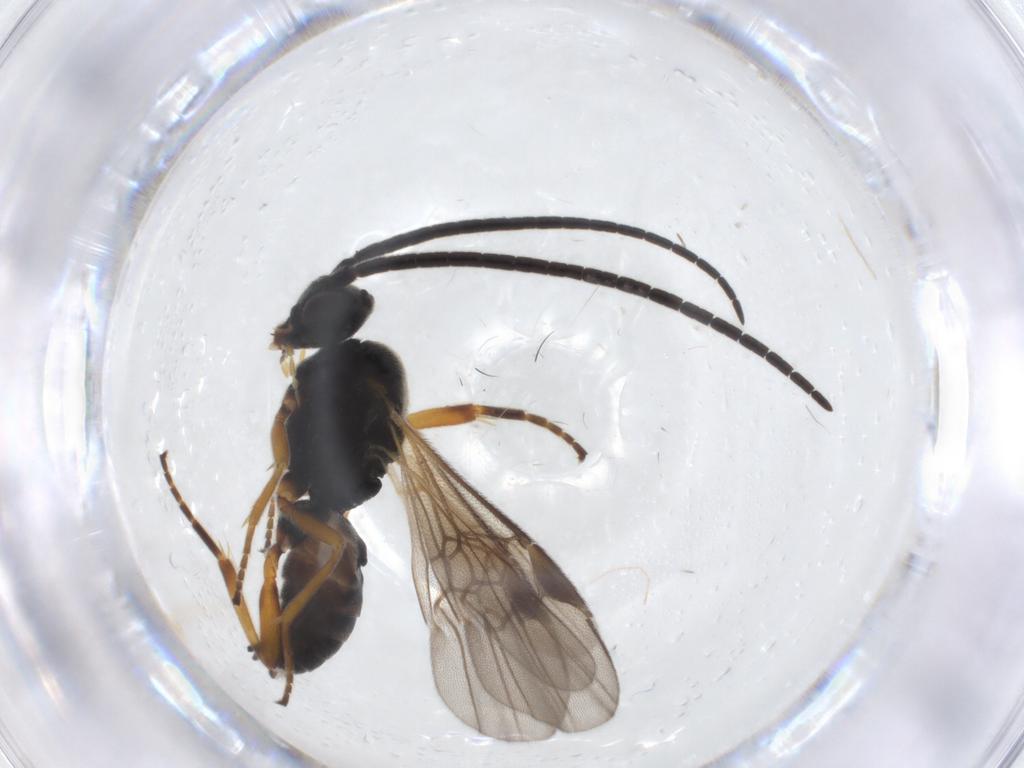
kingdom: Animalia
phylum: Arthropoda
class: Insecta
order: Hymenoptera
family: Braconidae
